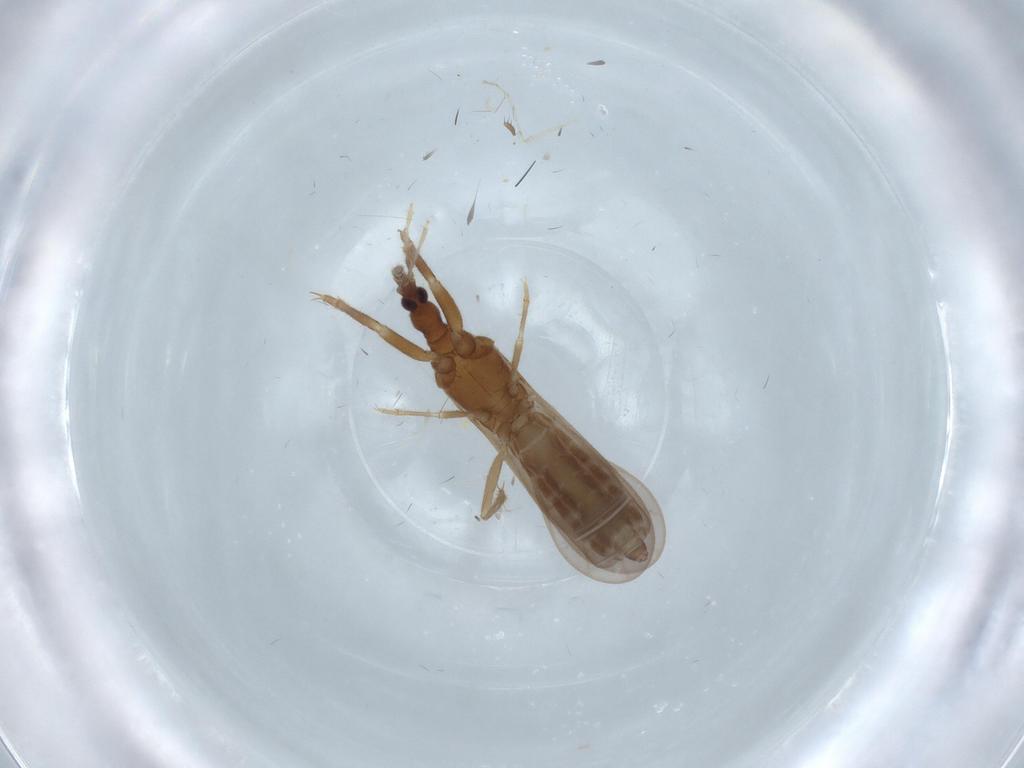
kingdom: Animalia
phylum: Arthropoda
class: Insecta
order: Hemiptera
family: Enicocephalidae
